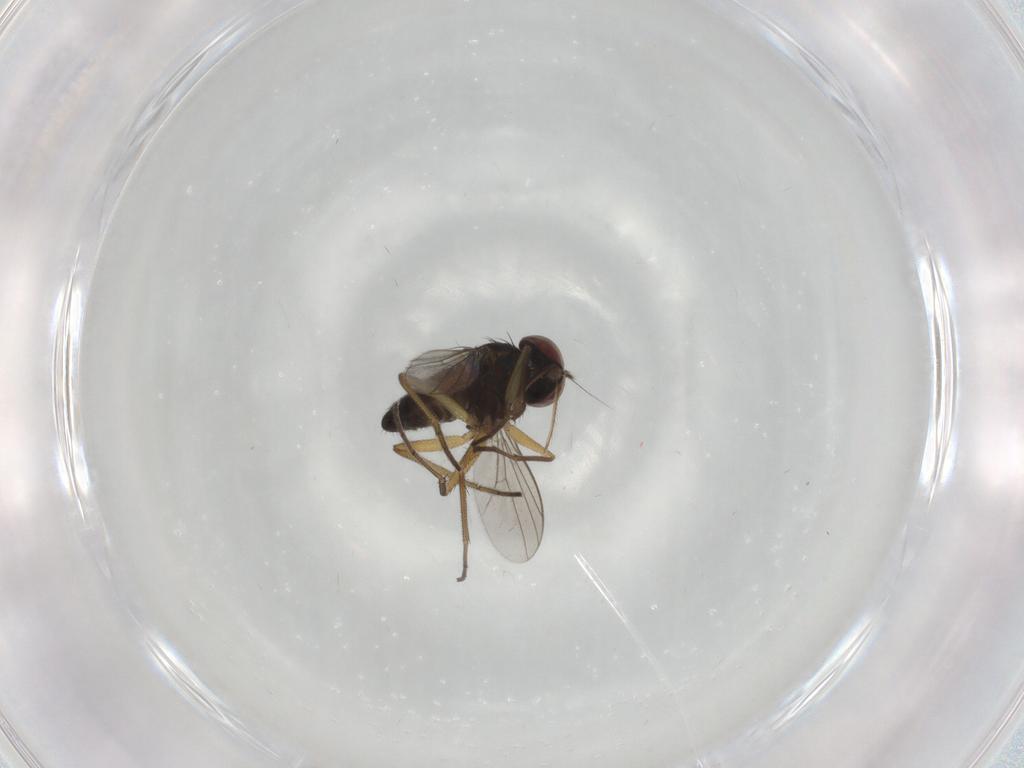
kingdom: Animalia
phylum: Arthropoda
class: Insecta
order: Diptera
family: Dolichopodidae
